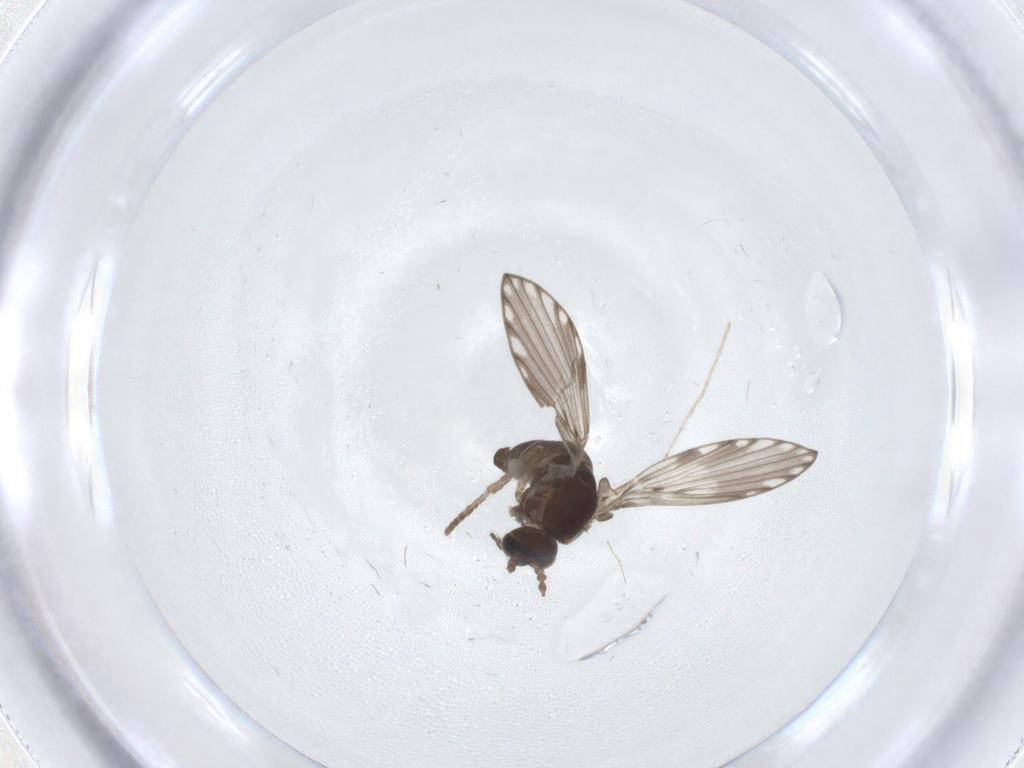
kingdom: Animalia
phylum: Arthropoda
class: Insecta
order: Diptera
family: Psychodidae
